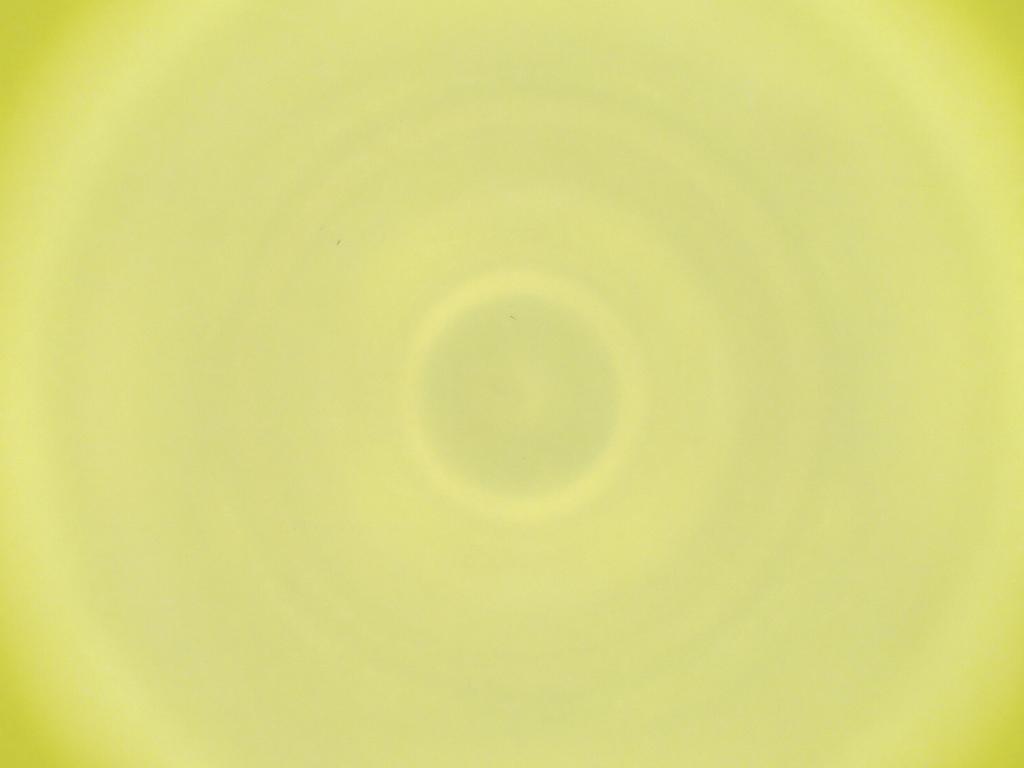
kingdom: Animalia
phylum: Arthropoda
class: Insecta
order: Diptera
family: Cecidomyiidae
